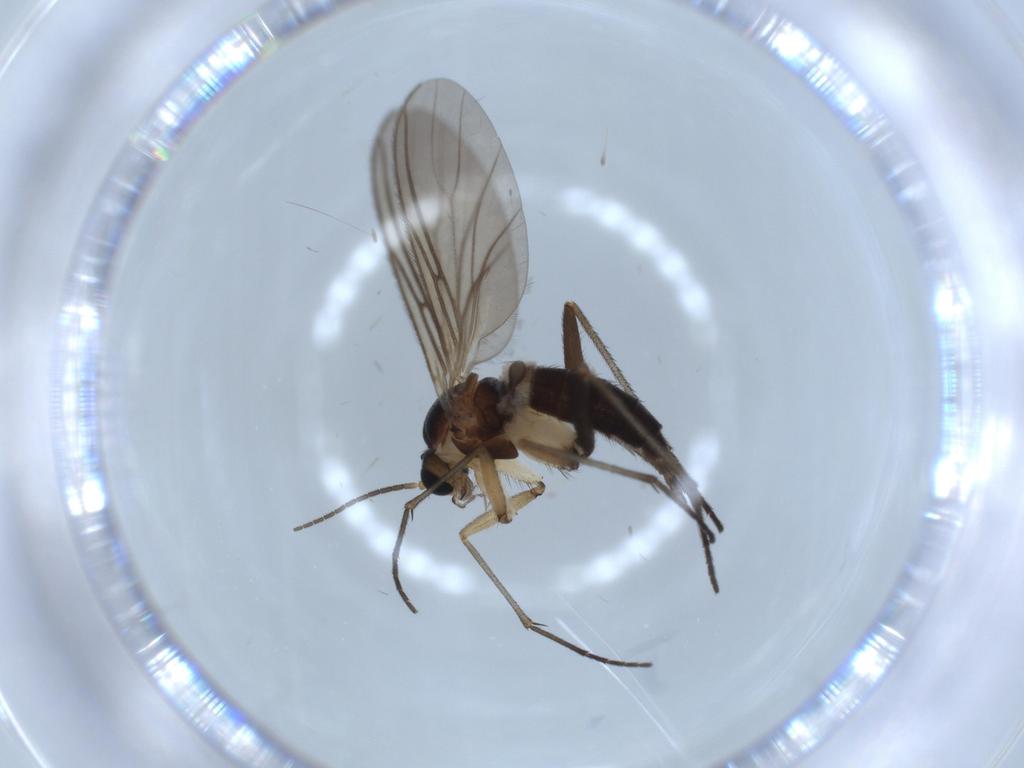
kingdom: Animalia
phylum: Arthropoda
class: Insecta
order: Diptera
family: Sciaridae
